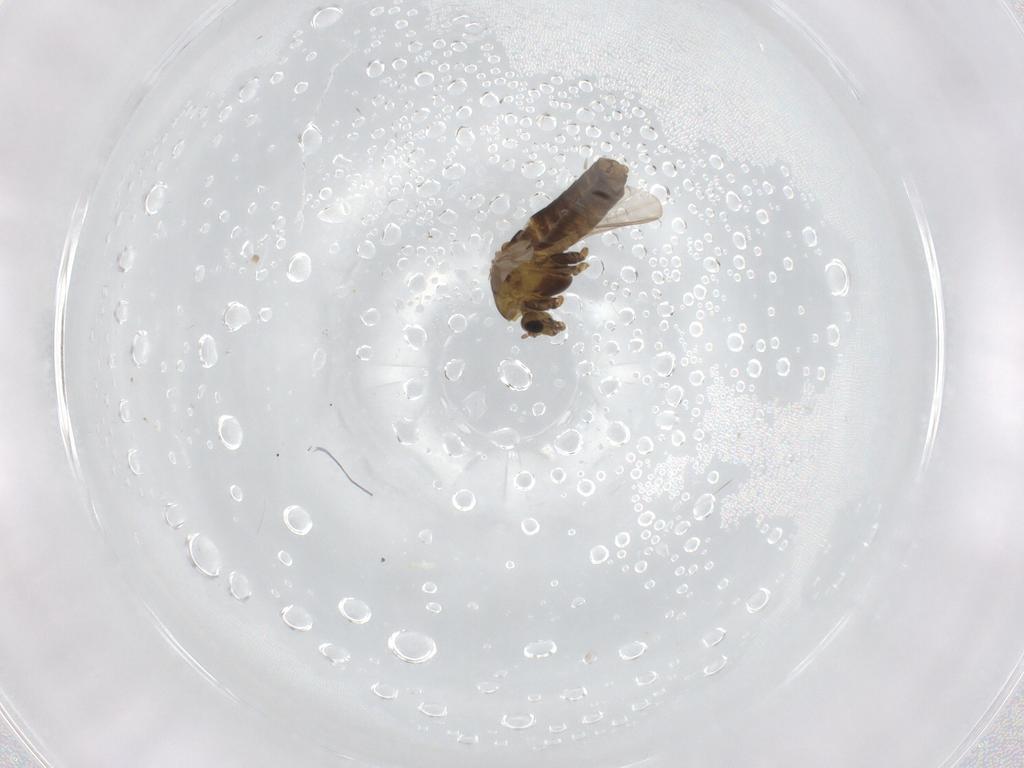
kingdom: Animalia
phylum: Arthropoda
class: Insecta
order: Diptera
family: Chironomidae
